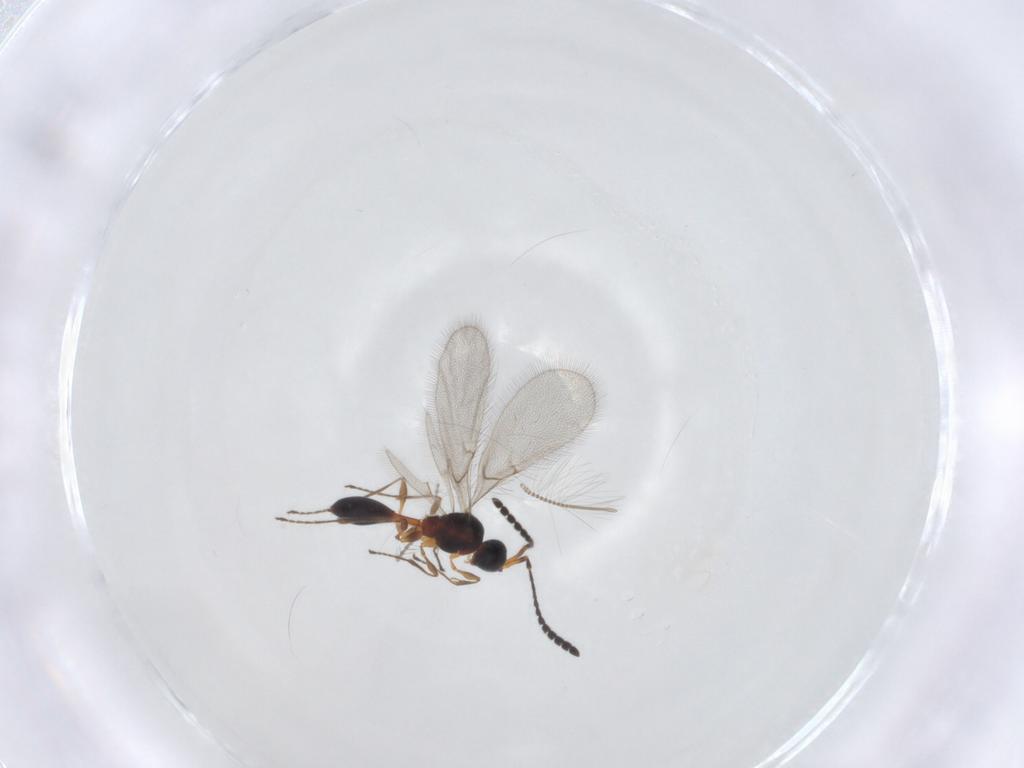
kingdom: Animalia
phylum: Arthropoda
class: Insecta
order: Hymenoptera
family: Diapriidae
